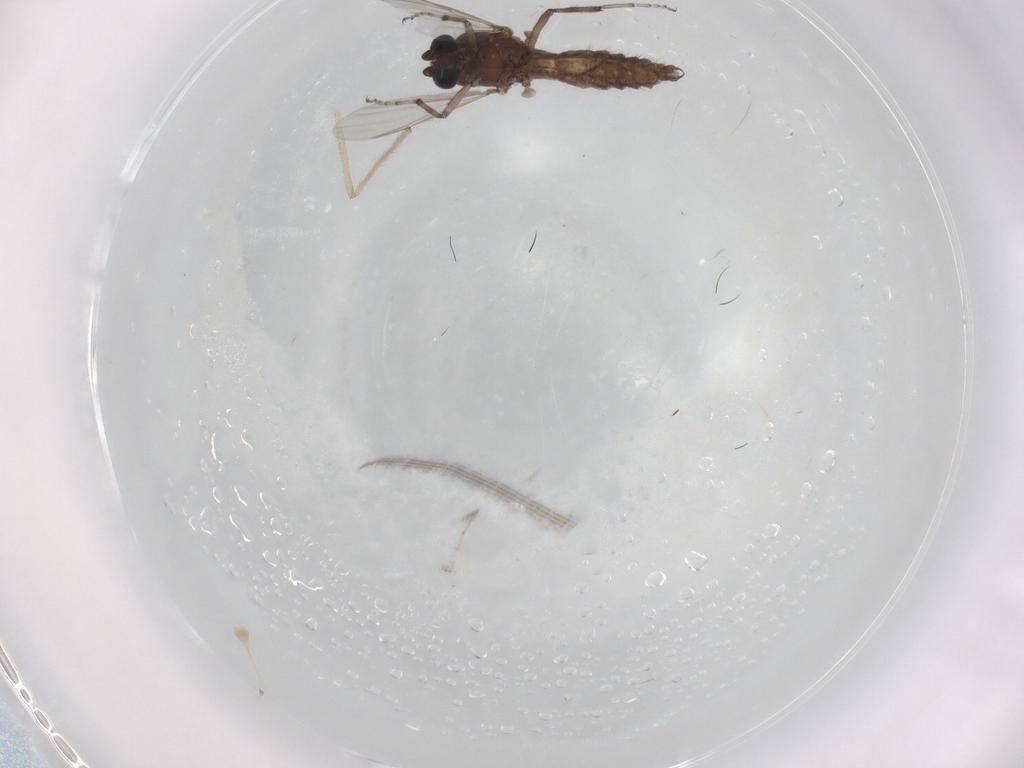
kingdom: Animalia
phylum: Arthropoda
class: Insecta
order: Diptera
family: Ceratopogonidae
